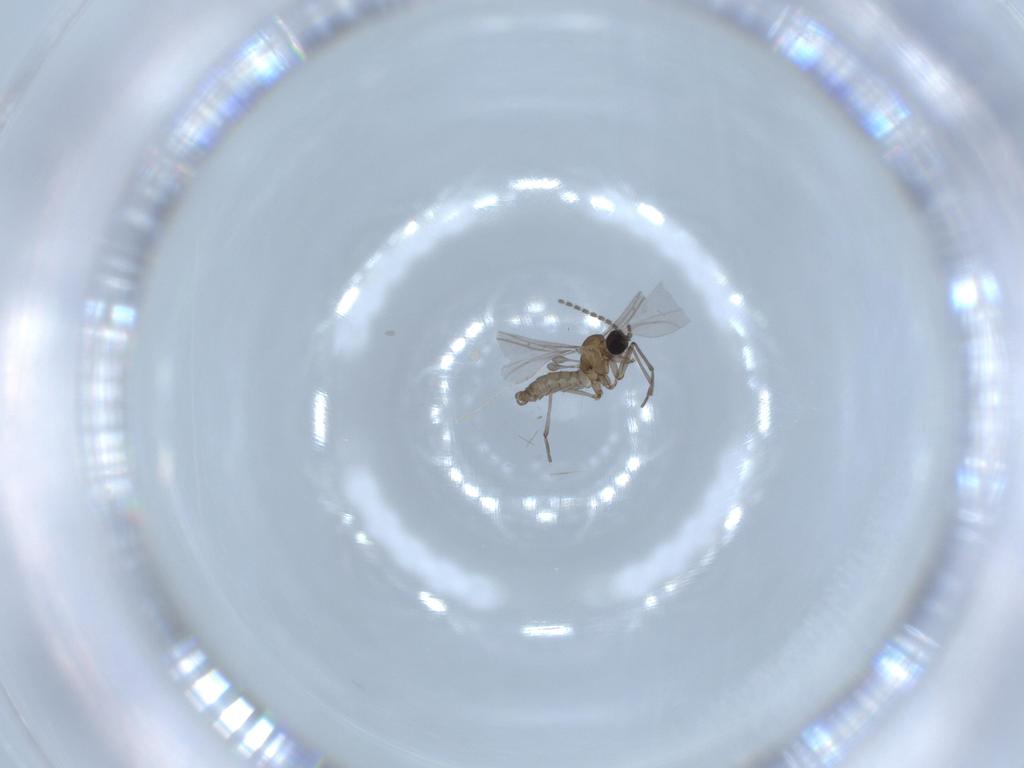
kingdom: Animalia
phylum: Arthropoda
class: Insecta
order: Diptera
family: Sciaridae
